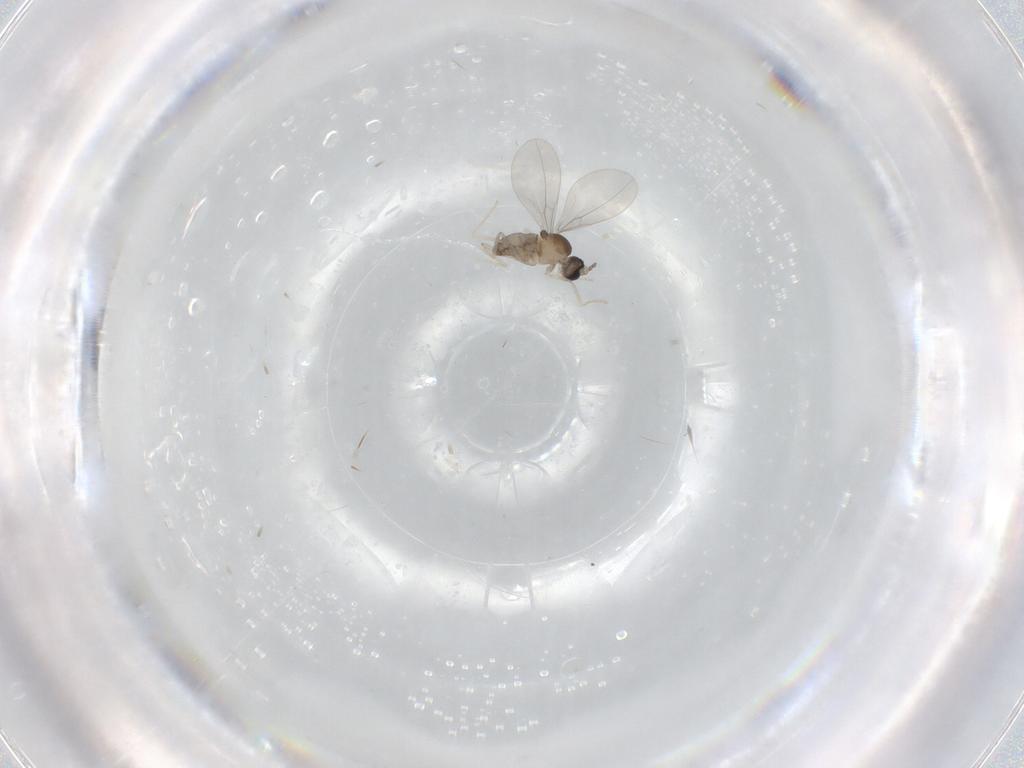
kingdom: Animalia
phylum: Arthropoda
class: Insecta
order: Diptera
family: Cecidomyiidae
